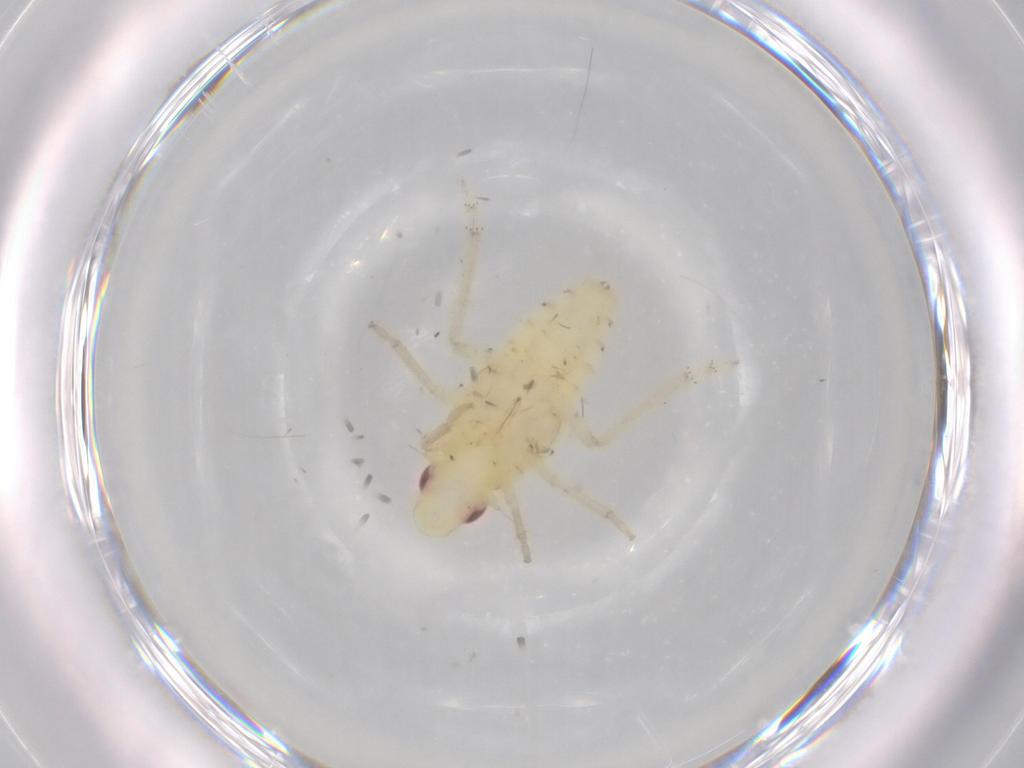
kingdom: Animalia
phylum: Arthropoda
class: Insecta
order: Hemiptera
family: Tropiduchidae
